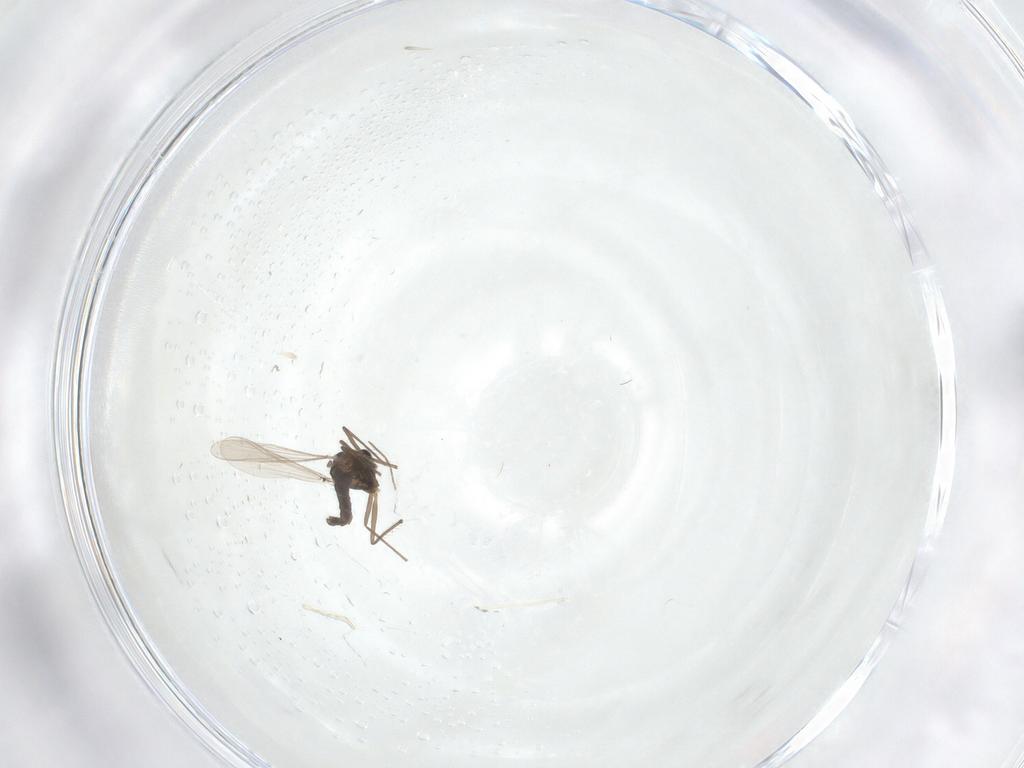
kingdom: Animalia
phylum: Arthropoda
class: Insecta
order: Diptera
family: Chironomidae
